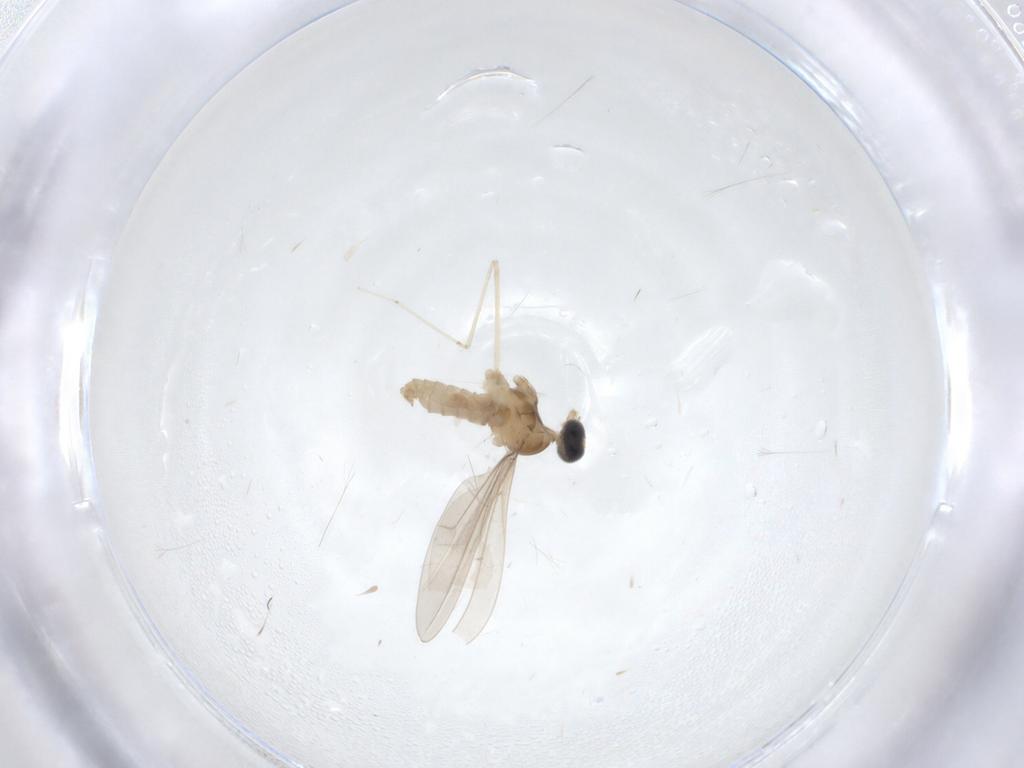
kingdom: Animalia
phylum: Arthropoda
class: Insecta
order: Diptera
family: Cecidomyiidae
